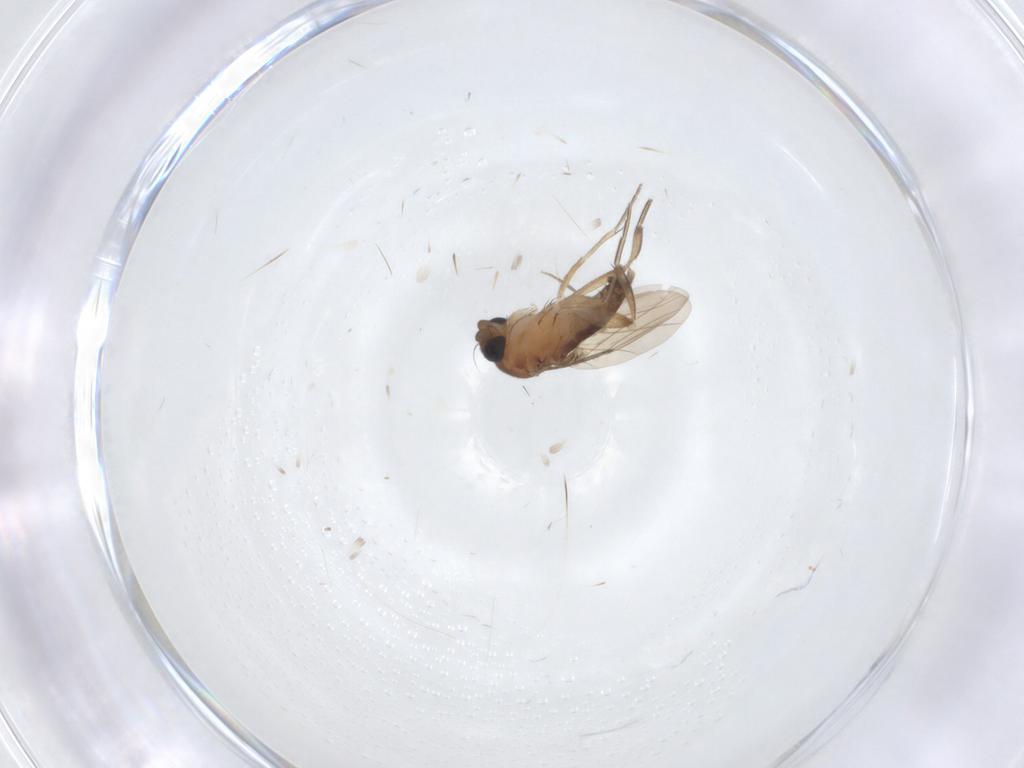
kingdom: Animalia
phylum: Arthropoda
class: Insecta
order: Diptera
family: Phoridae
